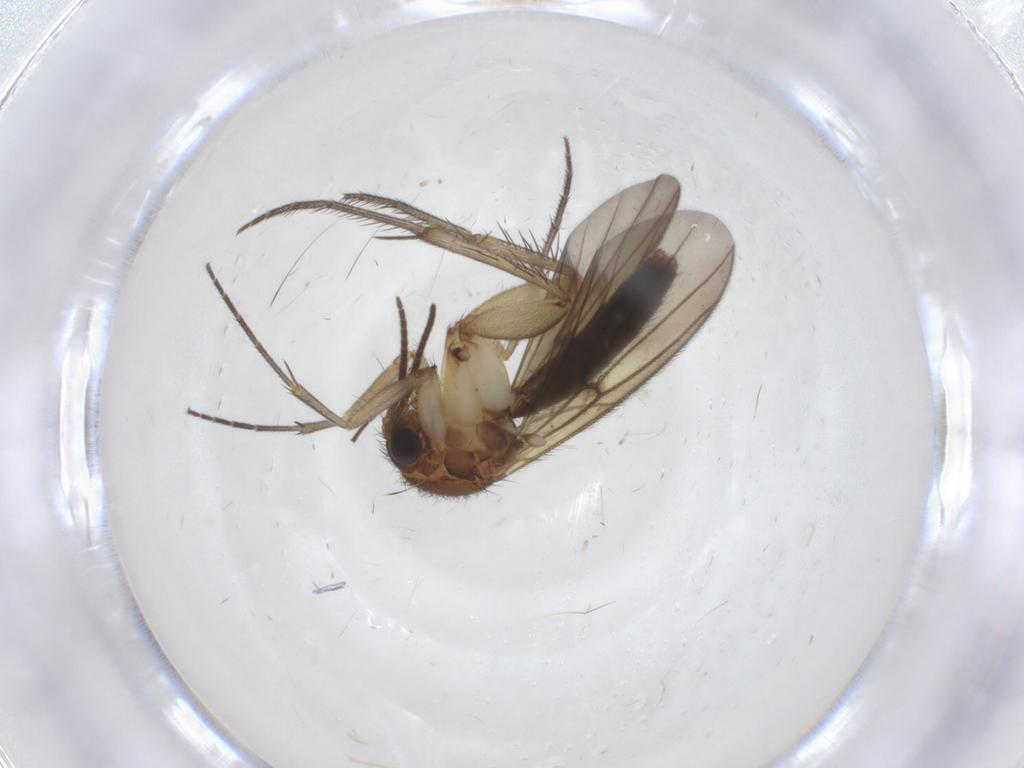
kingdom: Animalia
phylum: Arthropoda
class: Insecta
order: Diptera
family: Chironomidae
